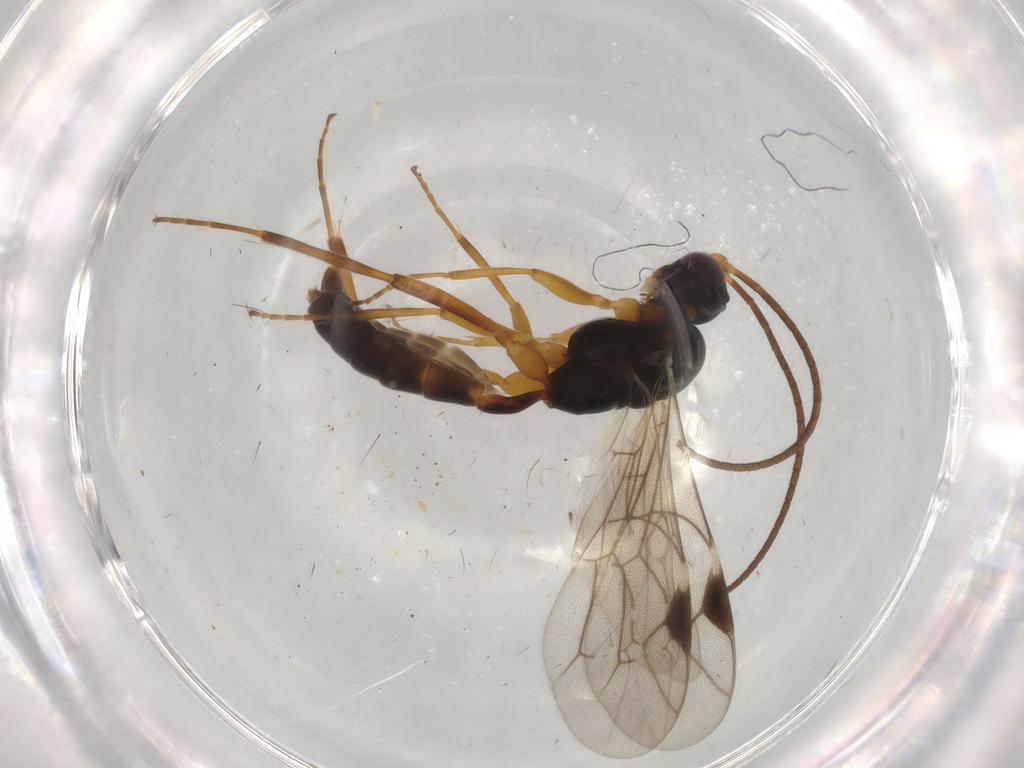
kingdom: Animalia
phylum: Arthropoda
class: Insecta
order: Hymenoptera
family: Ichneumonidae
